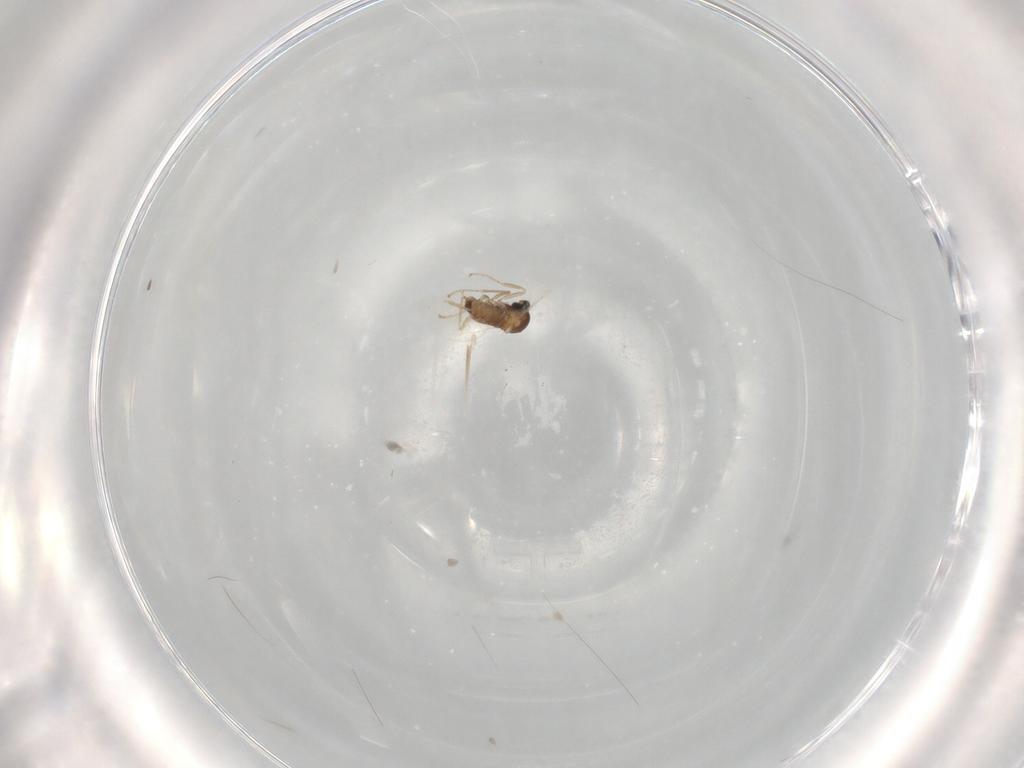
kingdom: Animalia
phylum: Arthropoda
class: Insecta
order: Diptera
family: Cecidomyiidae
